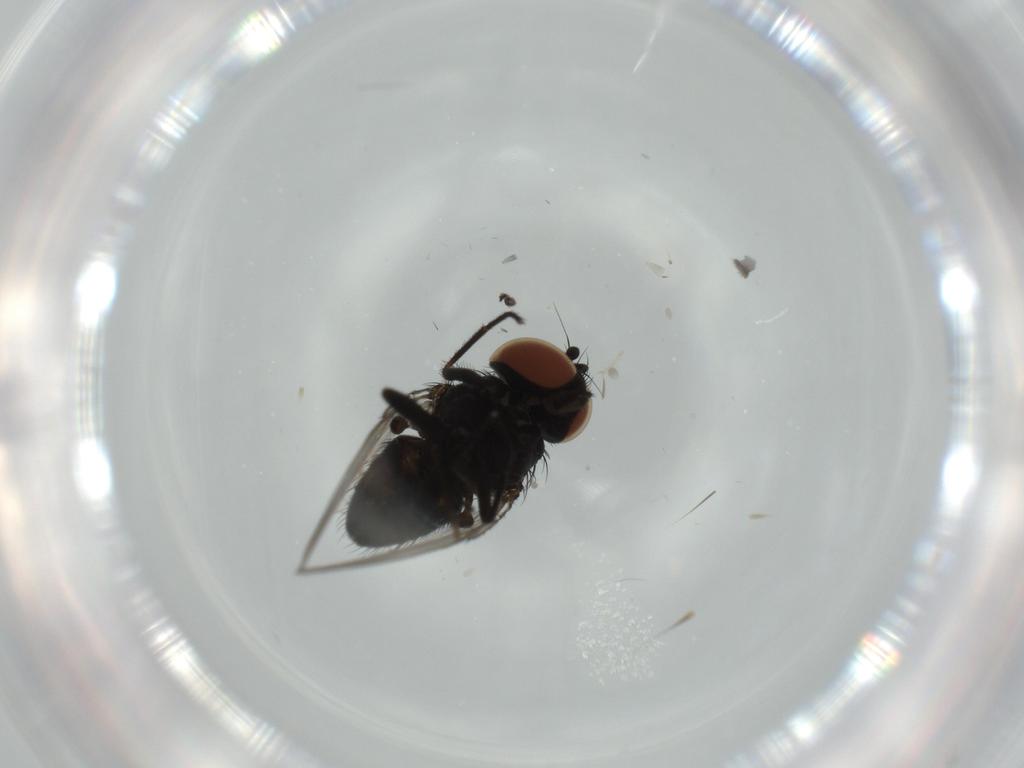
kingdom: Animalia
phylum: Arthropoda
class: Insecta
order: Diptera
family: Milichiidae
